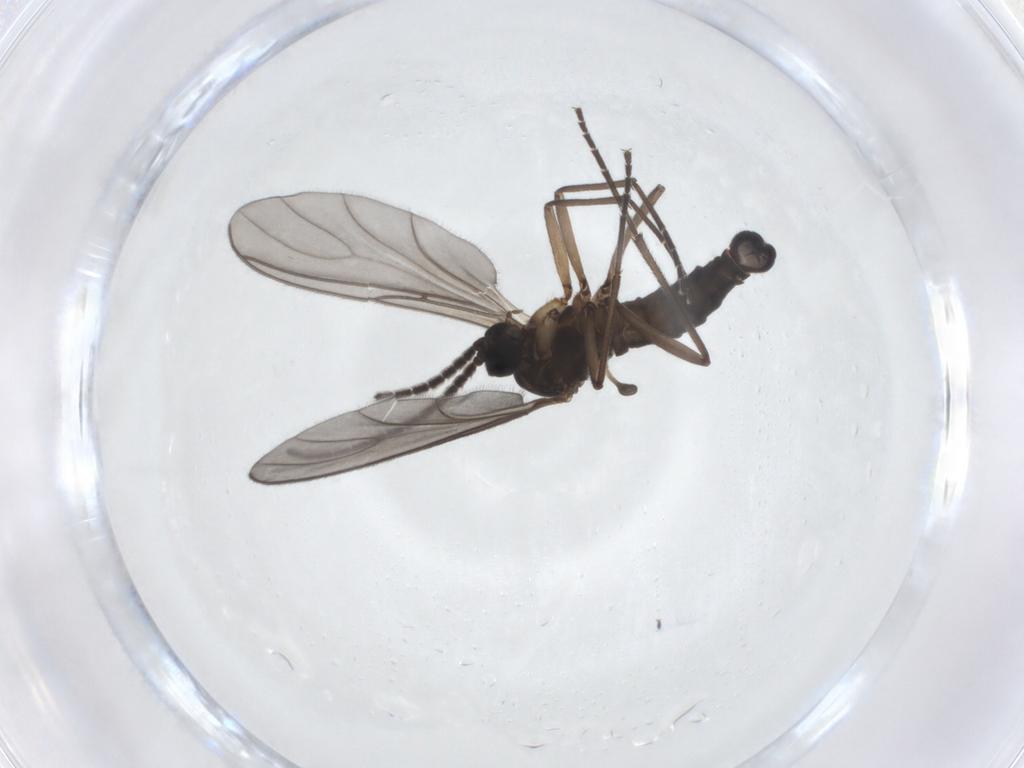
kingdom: Animalia
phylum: Arthropoda
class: Insecta
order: Diptera
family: Sciaridae
